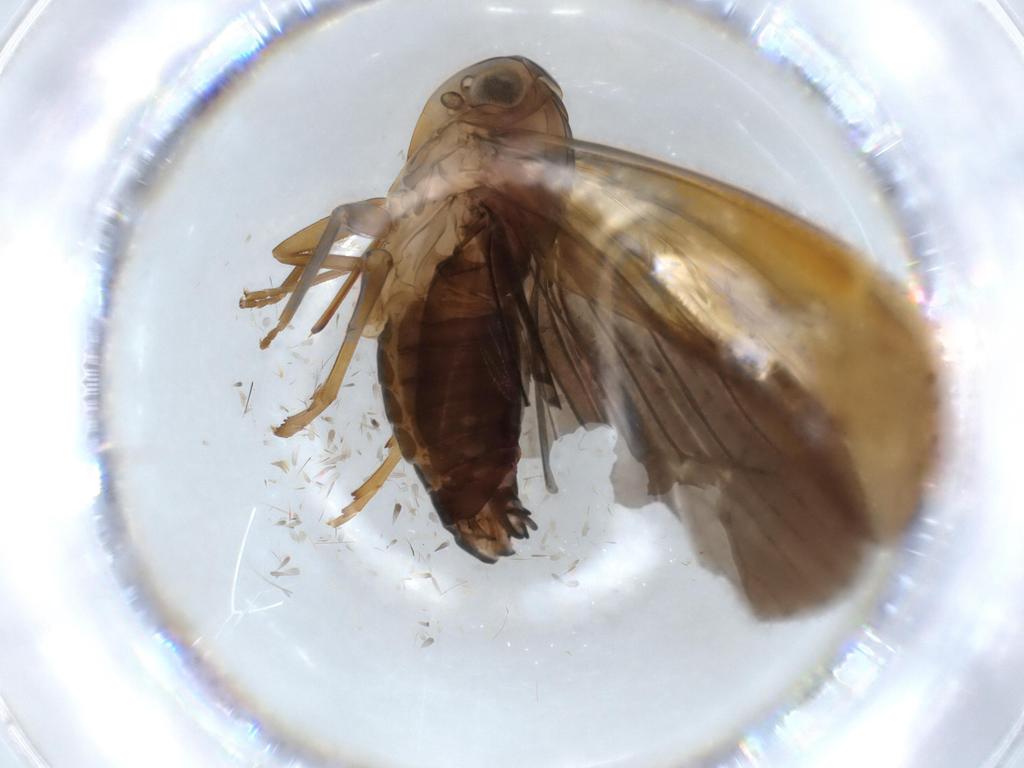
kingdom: Animalia
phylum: Arthropoda
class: Insecta
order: Hemiptera
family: Achilidae
